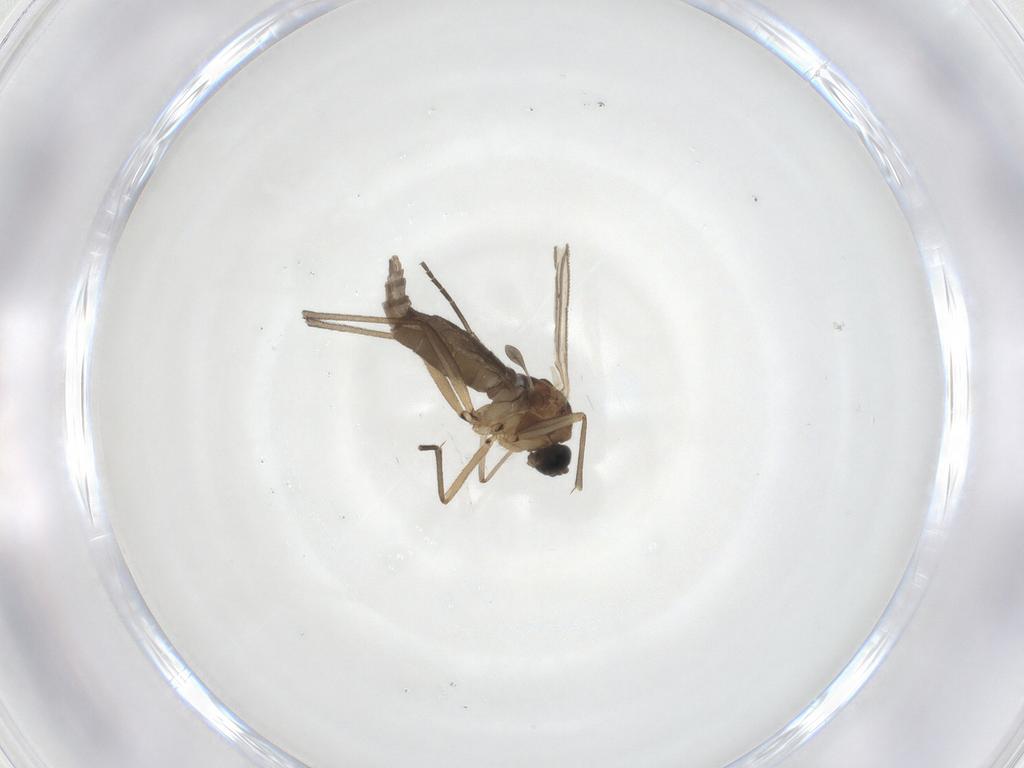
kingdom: Animalia
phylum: Arthropoda
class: Insecta
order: Diptera
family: Sciaridae
